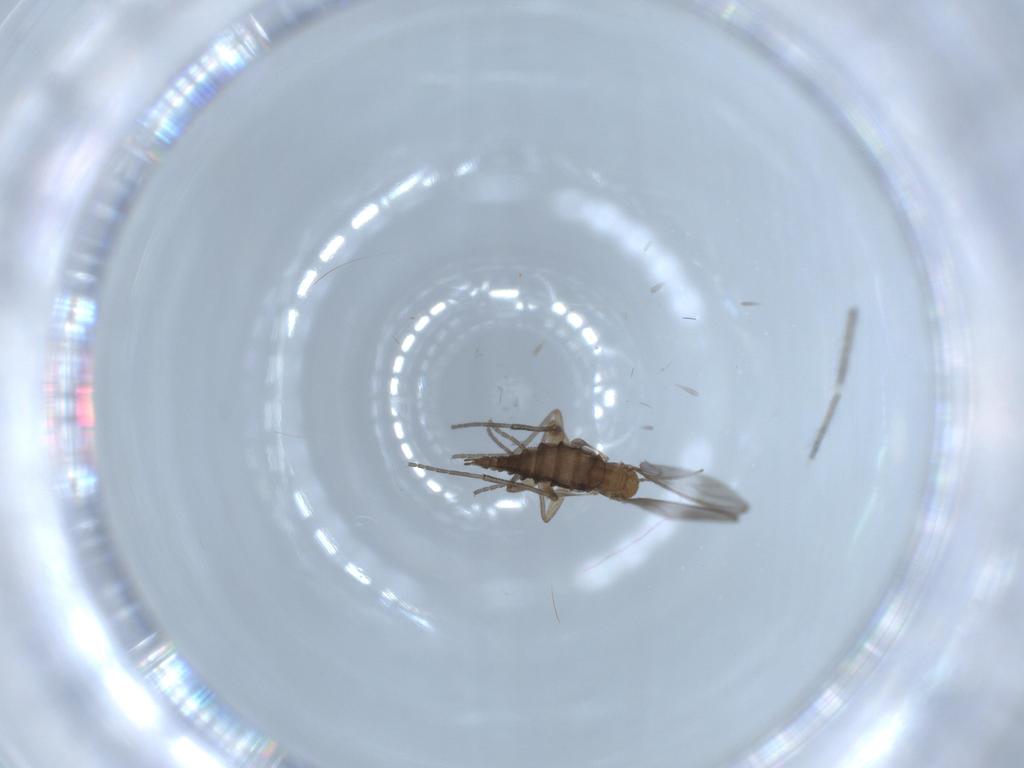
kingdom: Animalia
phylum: Arthropoda
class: Insecta
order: Diptera
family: Sciaridae
